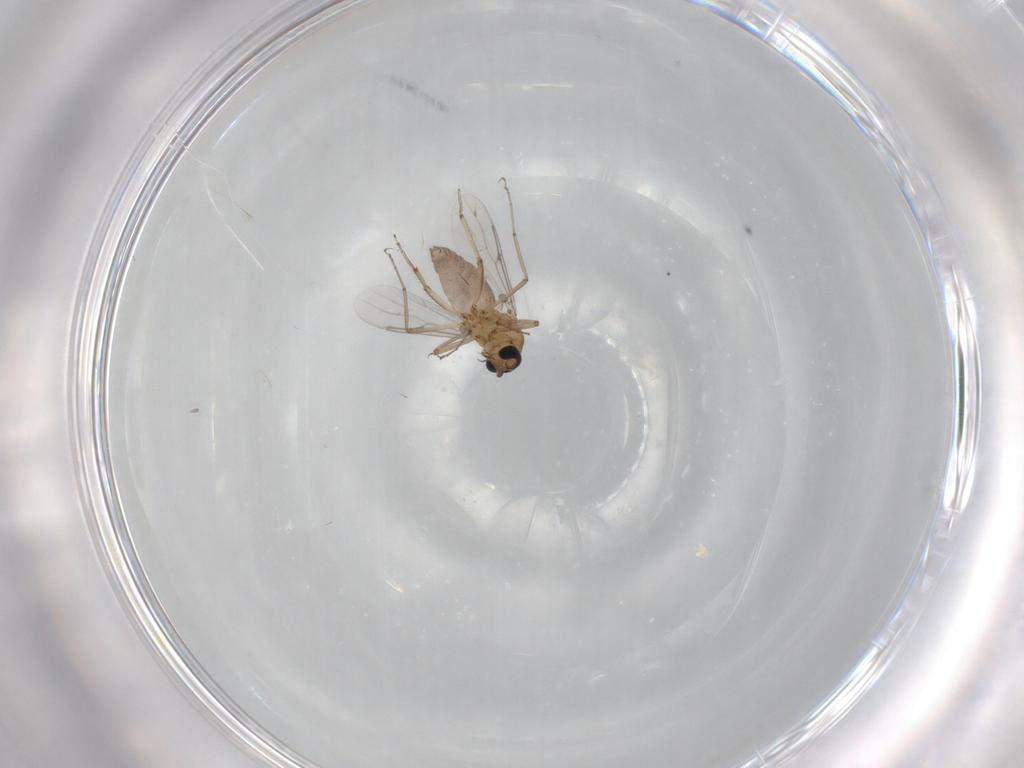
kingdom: Animalia
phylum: Arthropoda
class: Insecta
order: Diptera
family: Ceratopogonidae
